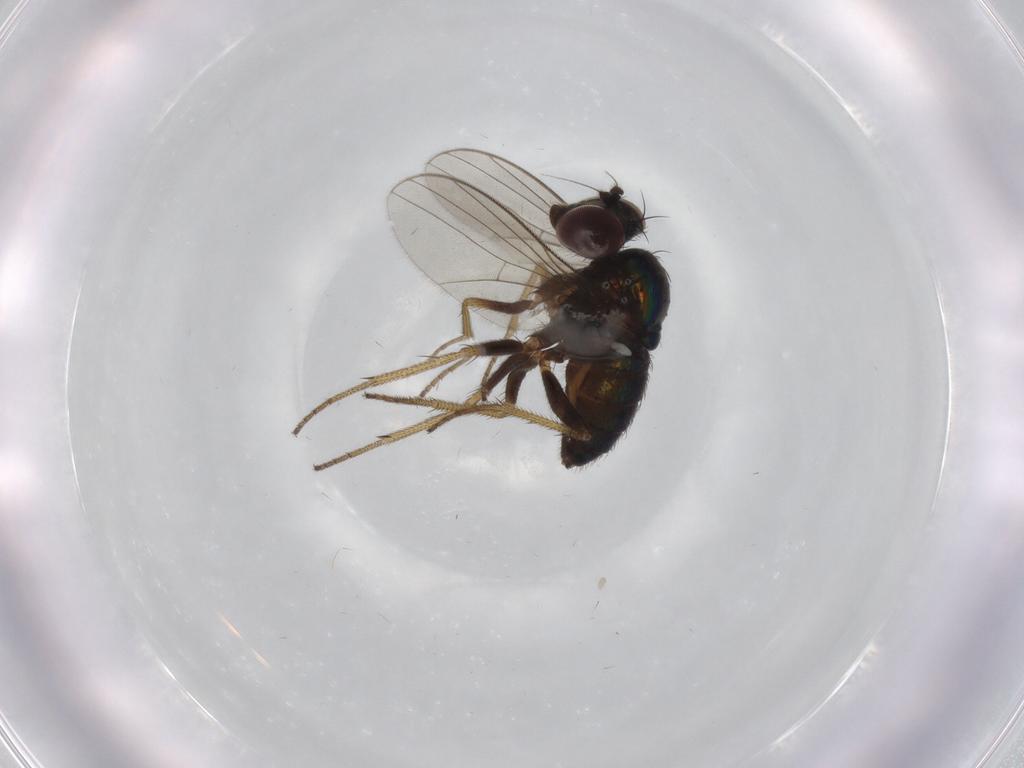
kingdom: Animalia
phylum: Arthropoda
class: Insecta
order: Diptera
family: Dolichopodidae
